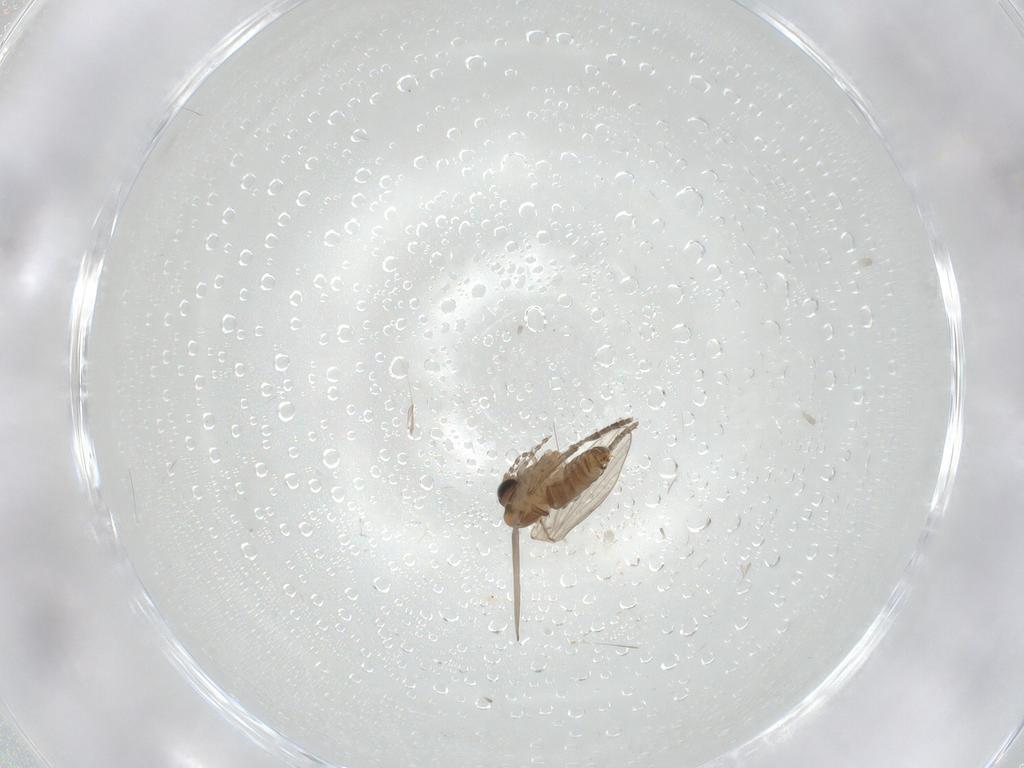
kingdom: Animalia
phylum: Arthropoda
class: Insecta
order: Diptera
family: Psychodidae
